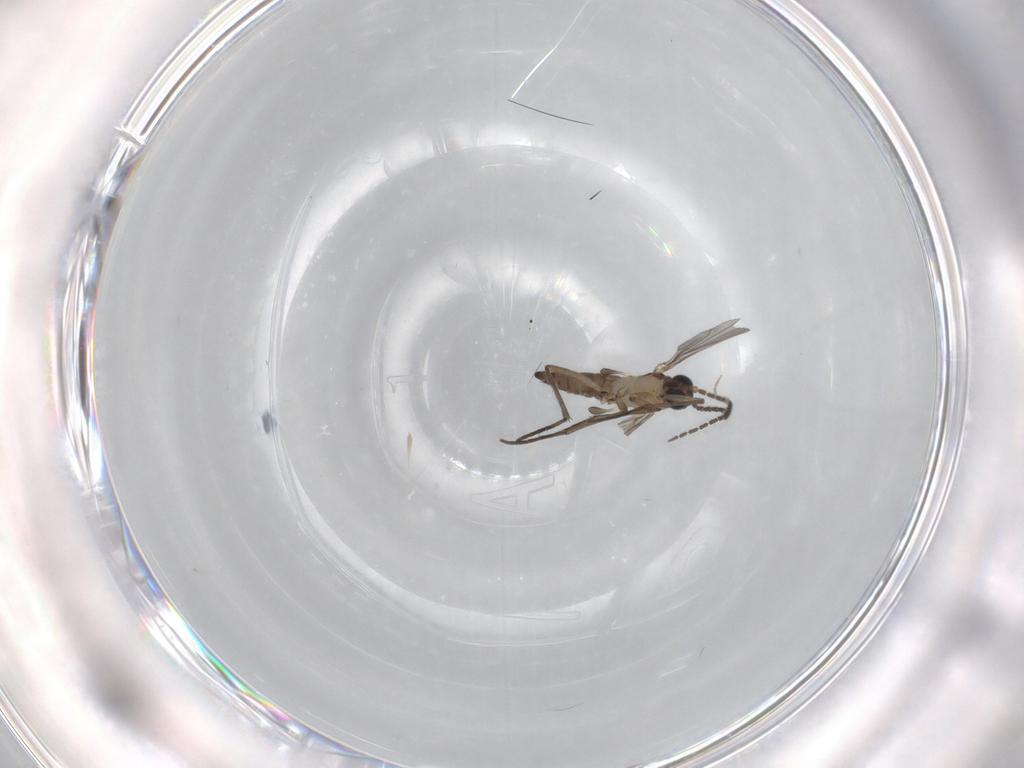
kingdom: Animalia
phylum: Arthropoda
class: Insecta
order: Diptera
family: Sciaridae
